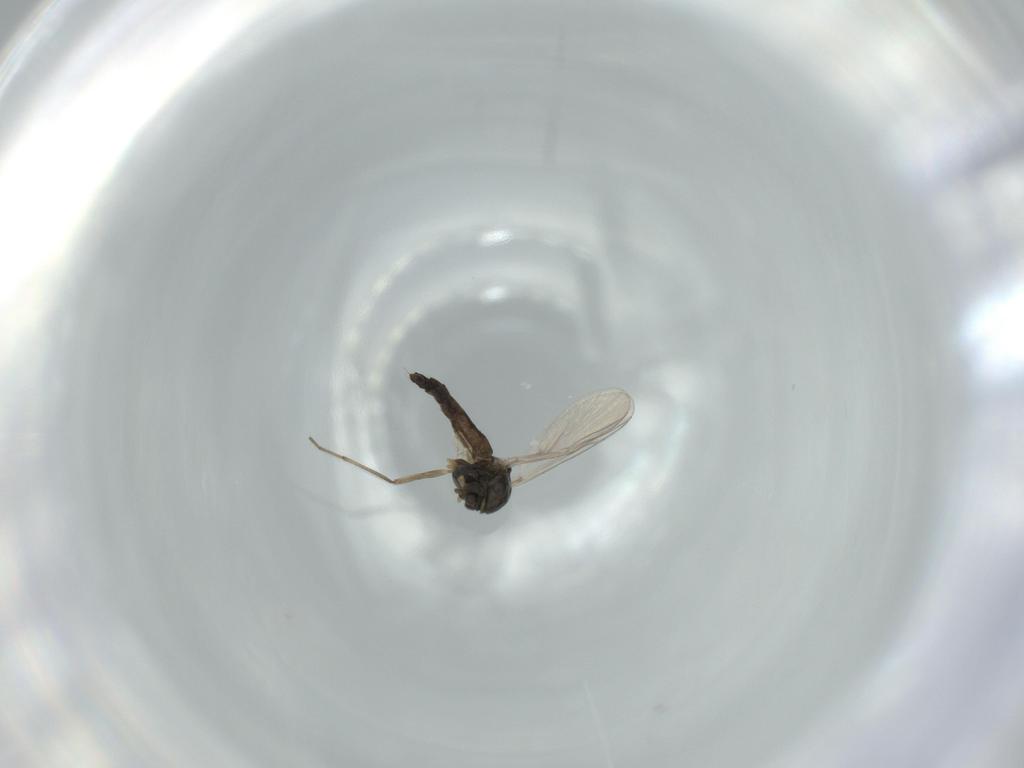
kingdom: Animalia
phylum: Arthropoda
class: Insecta
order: Diptera
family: Chironomidae
